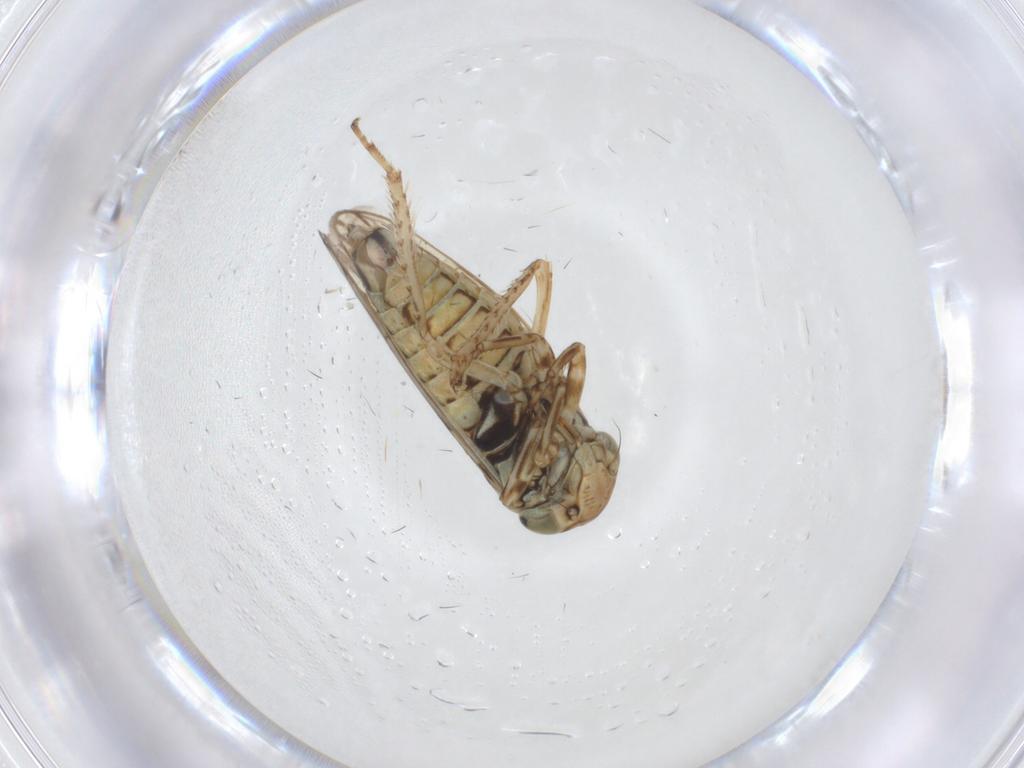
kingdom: Animalia
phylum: Arthropoda
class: Insecta
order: Hemiptera
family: Cicadellidae
